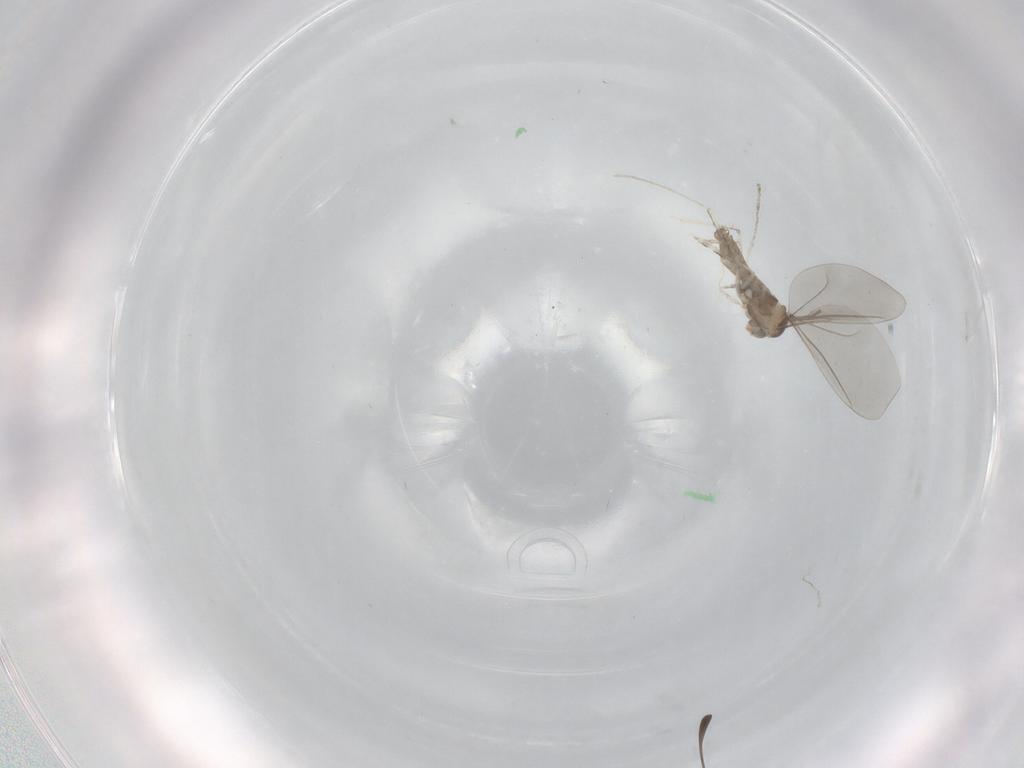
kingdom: Animalia
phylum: Arthropoda
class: Insecta
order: Diptera
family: Cecidomyiidae
